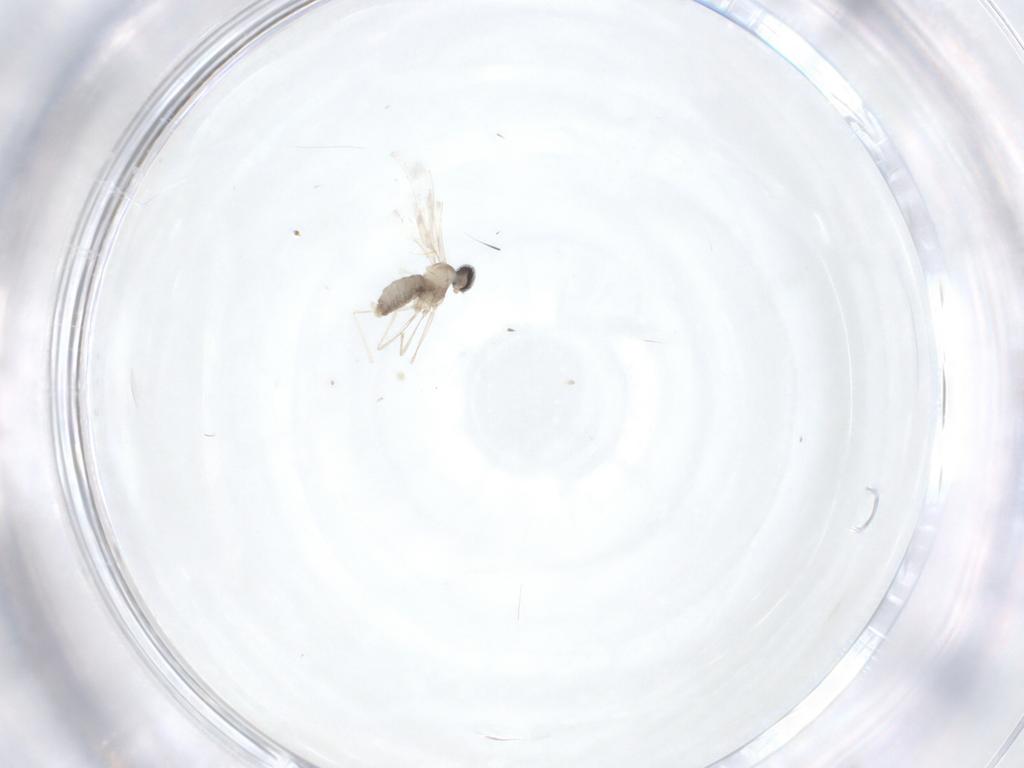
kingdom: Animalia
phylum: Arthropoda
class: Insecta
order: Diptera
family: Cecidomyiidae
